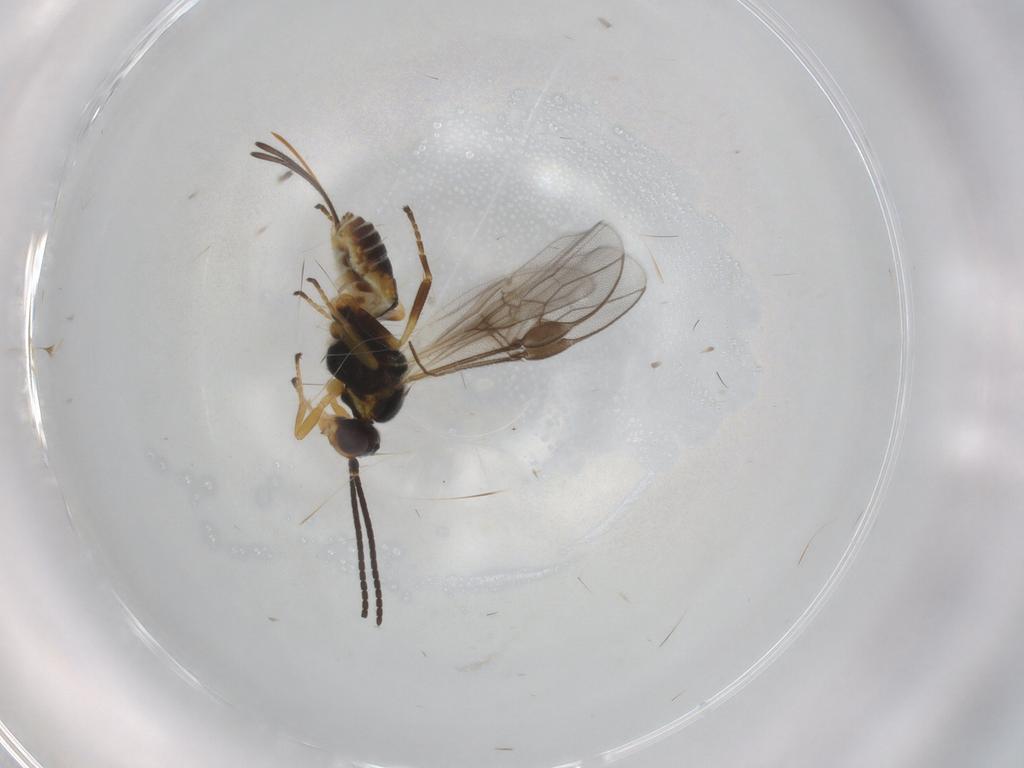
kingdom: Animalia
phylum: Arthropoda
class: Insecta
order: Hymenoptera
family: Braconidae
